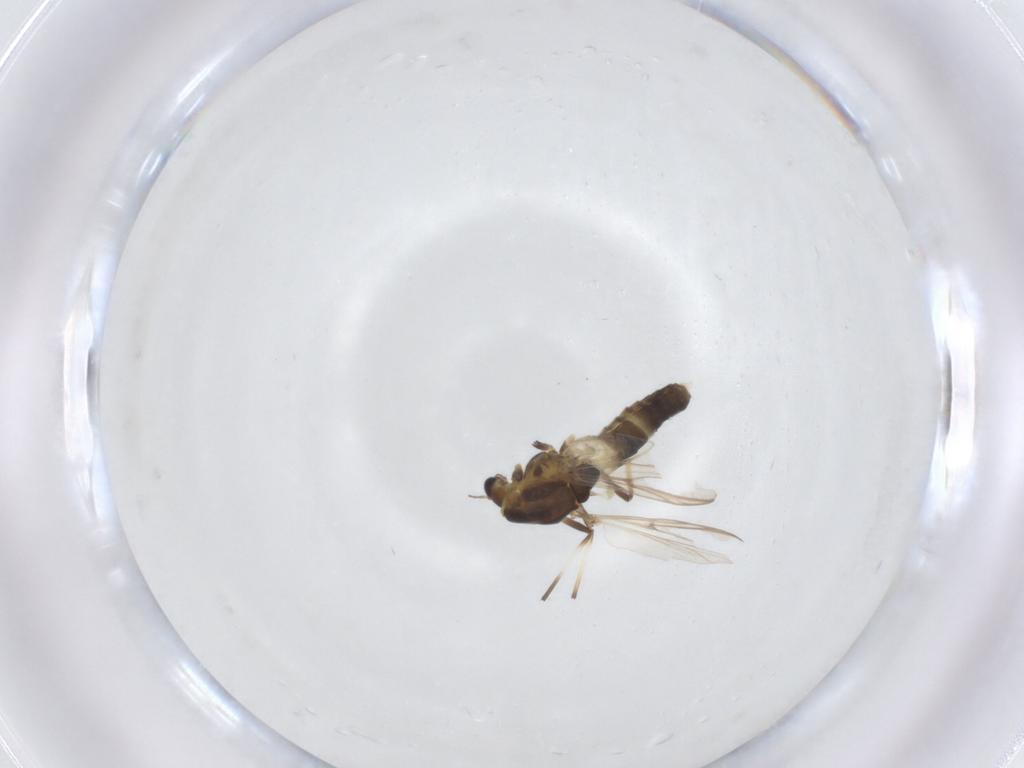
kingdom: Animalia
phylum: Arthropoda
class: Insecta
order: Diptera
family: Chironomidae
